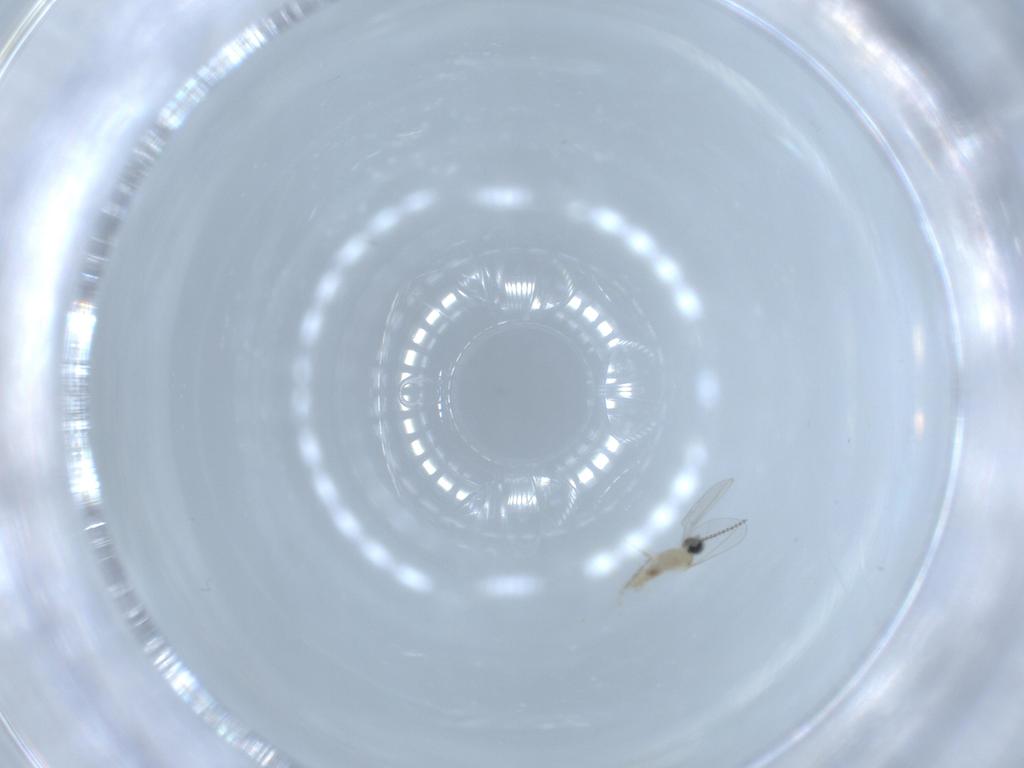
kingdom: Animalia
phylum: Arthropoda
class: Insecta
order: Diptera
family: Cecidomyiidae
